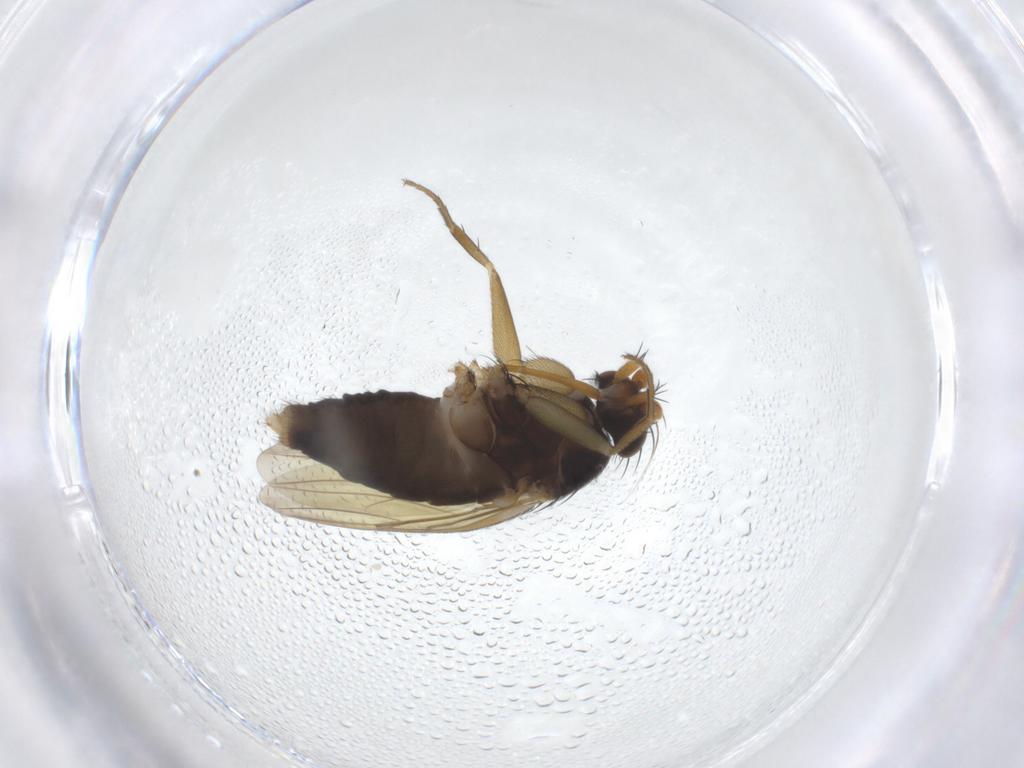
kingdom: Animalia
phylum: Arthropoda
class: Insecta
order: Diptera
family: Phoridae
